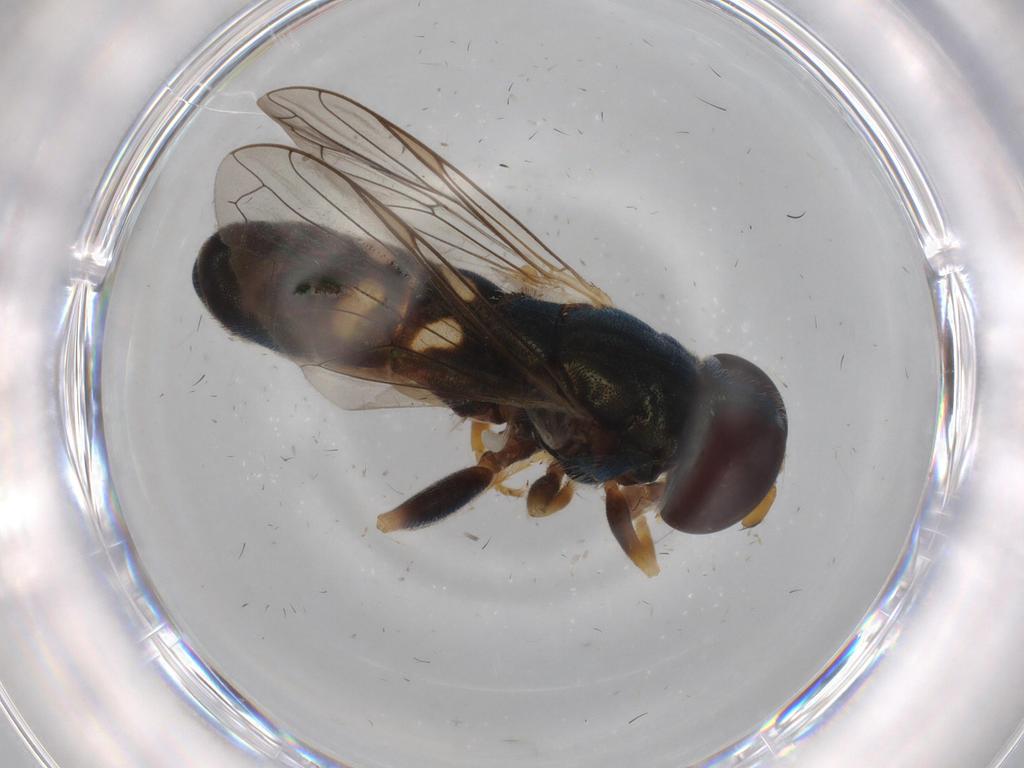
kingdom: Animalia
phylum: Arthropoda
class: Insecta
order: Diptera
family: Syrphidae
